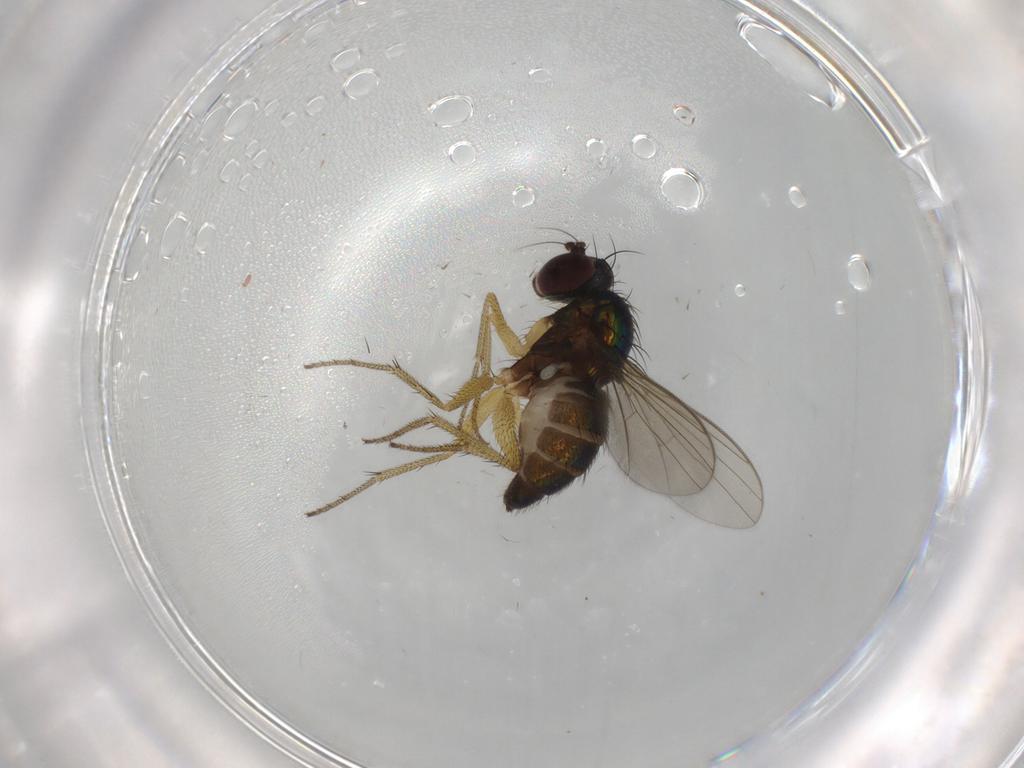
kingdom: Animalia
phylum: Arthropoda
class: Insecta
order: Diptera
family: Dolichopodidae
